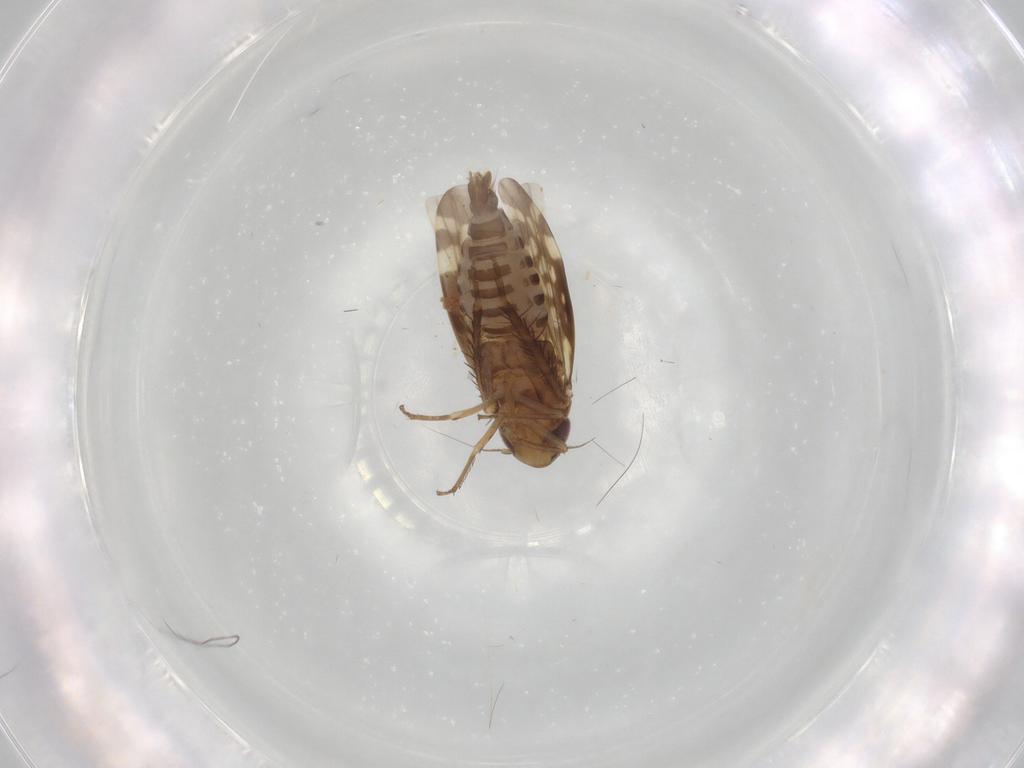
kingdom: Animalia
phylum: Arthropoda
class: Insecta
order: Hemiptera
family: Cicadellidae
